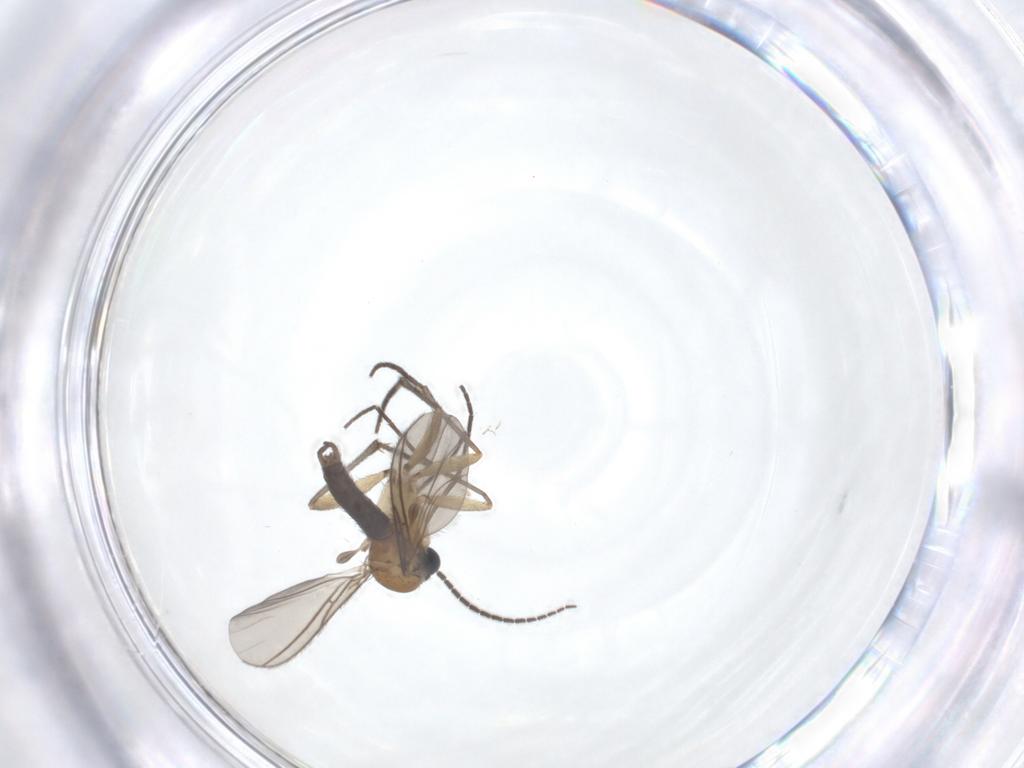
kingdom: Animalia
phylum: Arthropoda
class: Insecta
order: Diptera
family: Sciaridae
